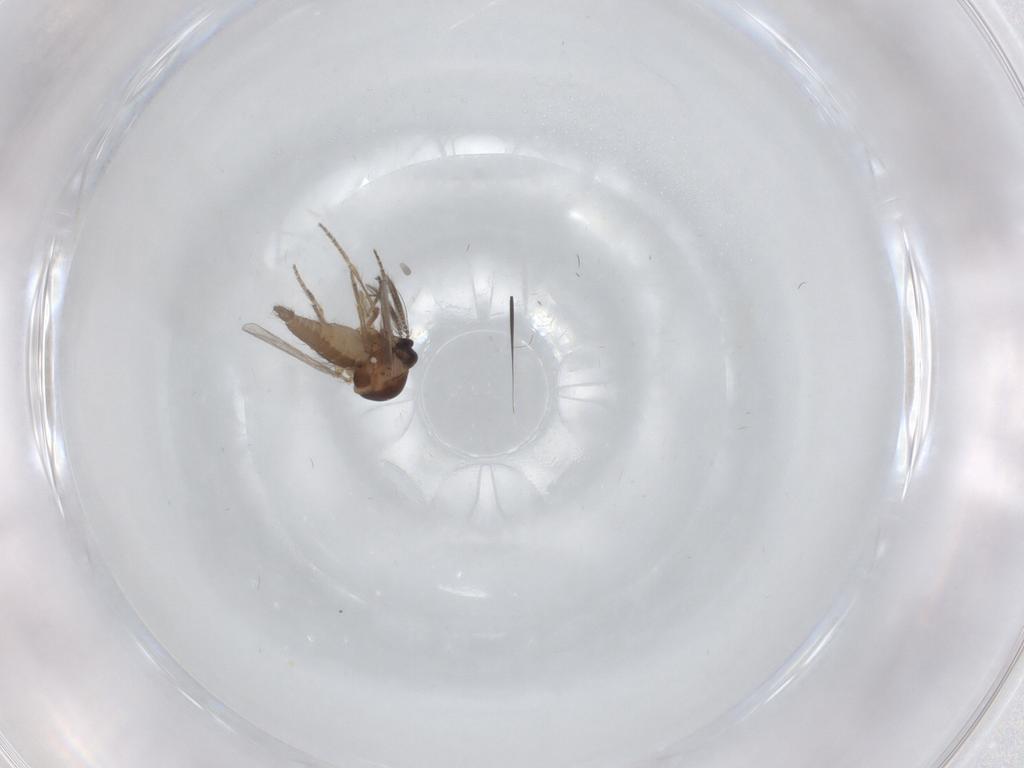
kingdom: Animalia
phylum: Arthropoda
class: Insecta
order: Diptera
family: Ceratopogonidae
